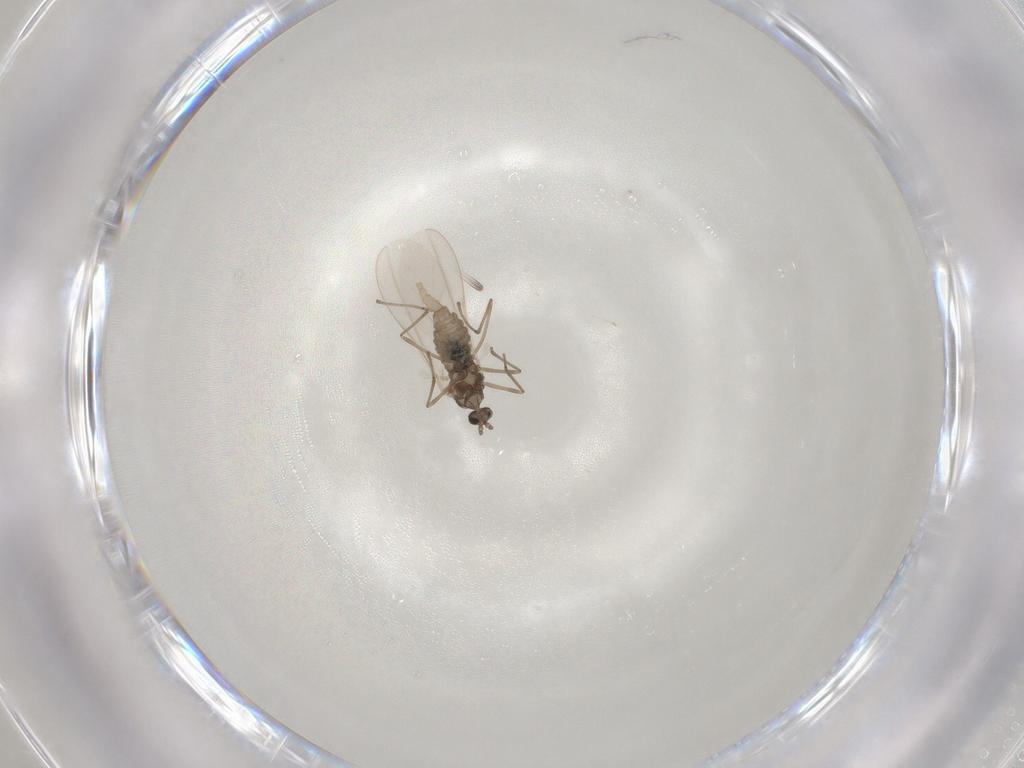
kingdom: Animalia
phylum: Arthropoda
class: Insecta
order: Diptera
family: Cecidomyiidae
